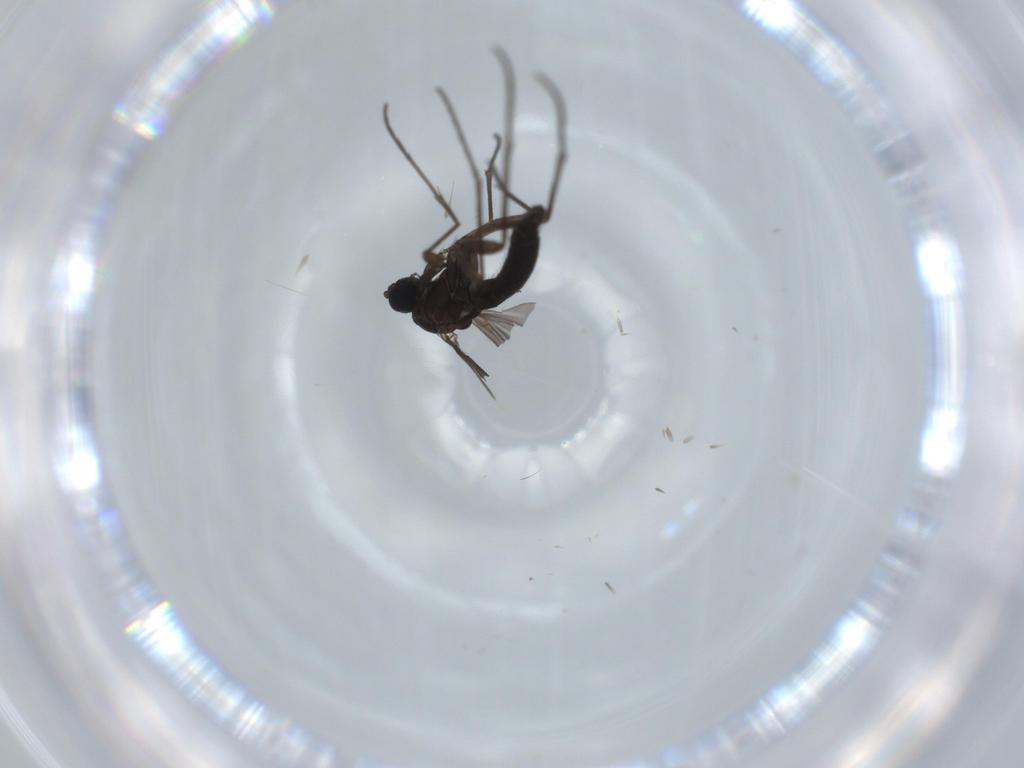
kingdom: Animalia
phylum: Arthropoda
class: Insecta
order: Diptera
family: Sciaridae
